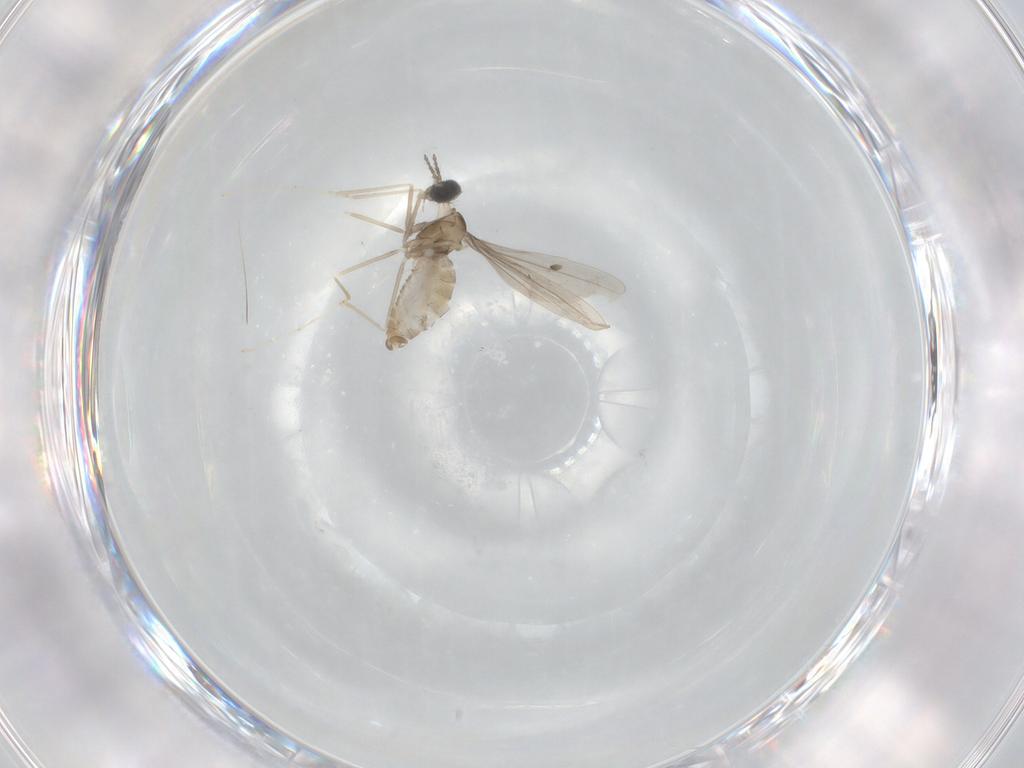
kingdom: Animalia
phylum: Arthropoda
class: Insecta
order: Diptera
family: Cecidomyiidae
